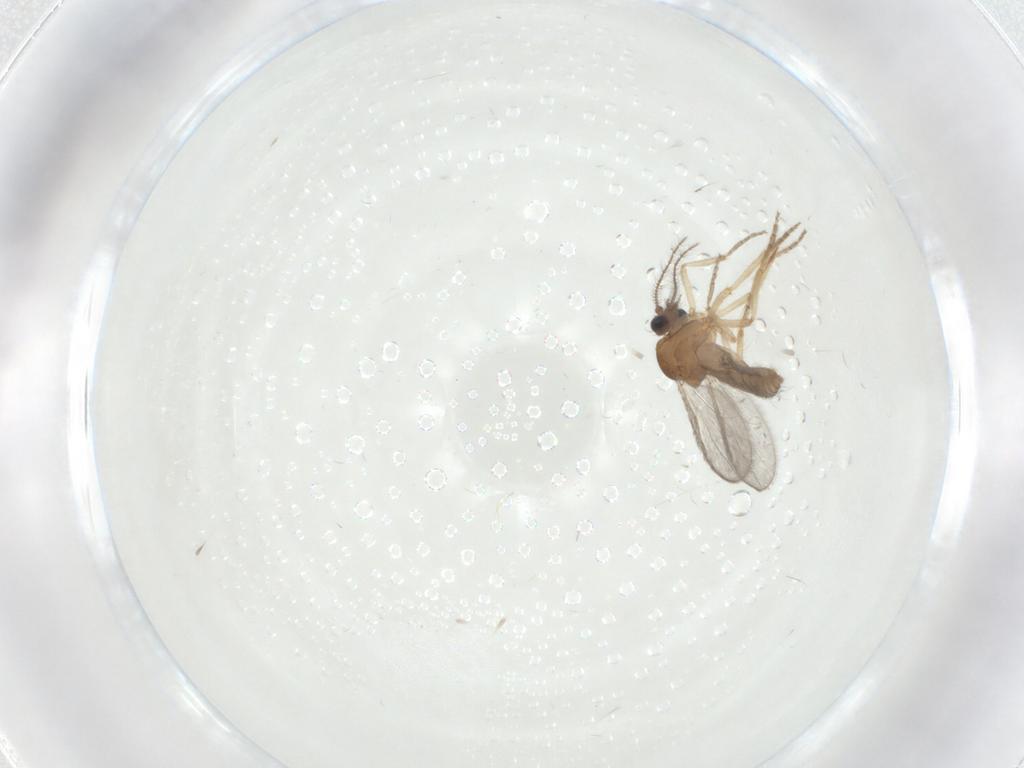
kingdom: Animalia
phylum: Arthropoda
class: Insecta
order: Diptera
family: Ceratopogonidae
